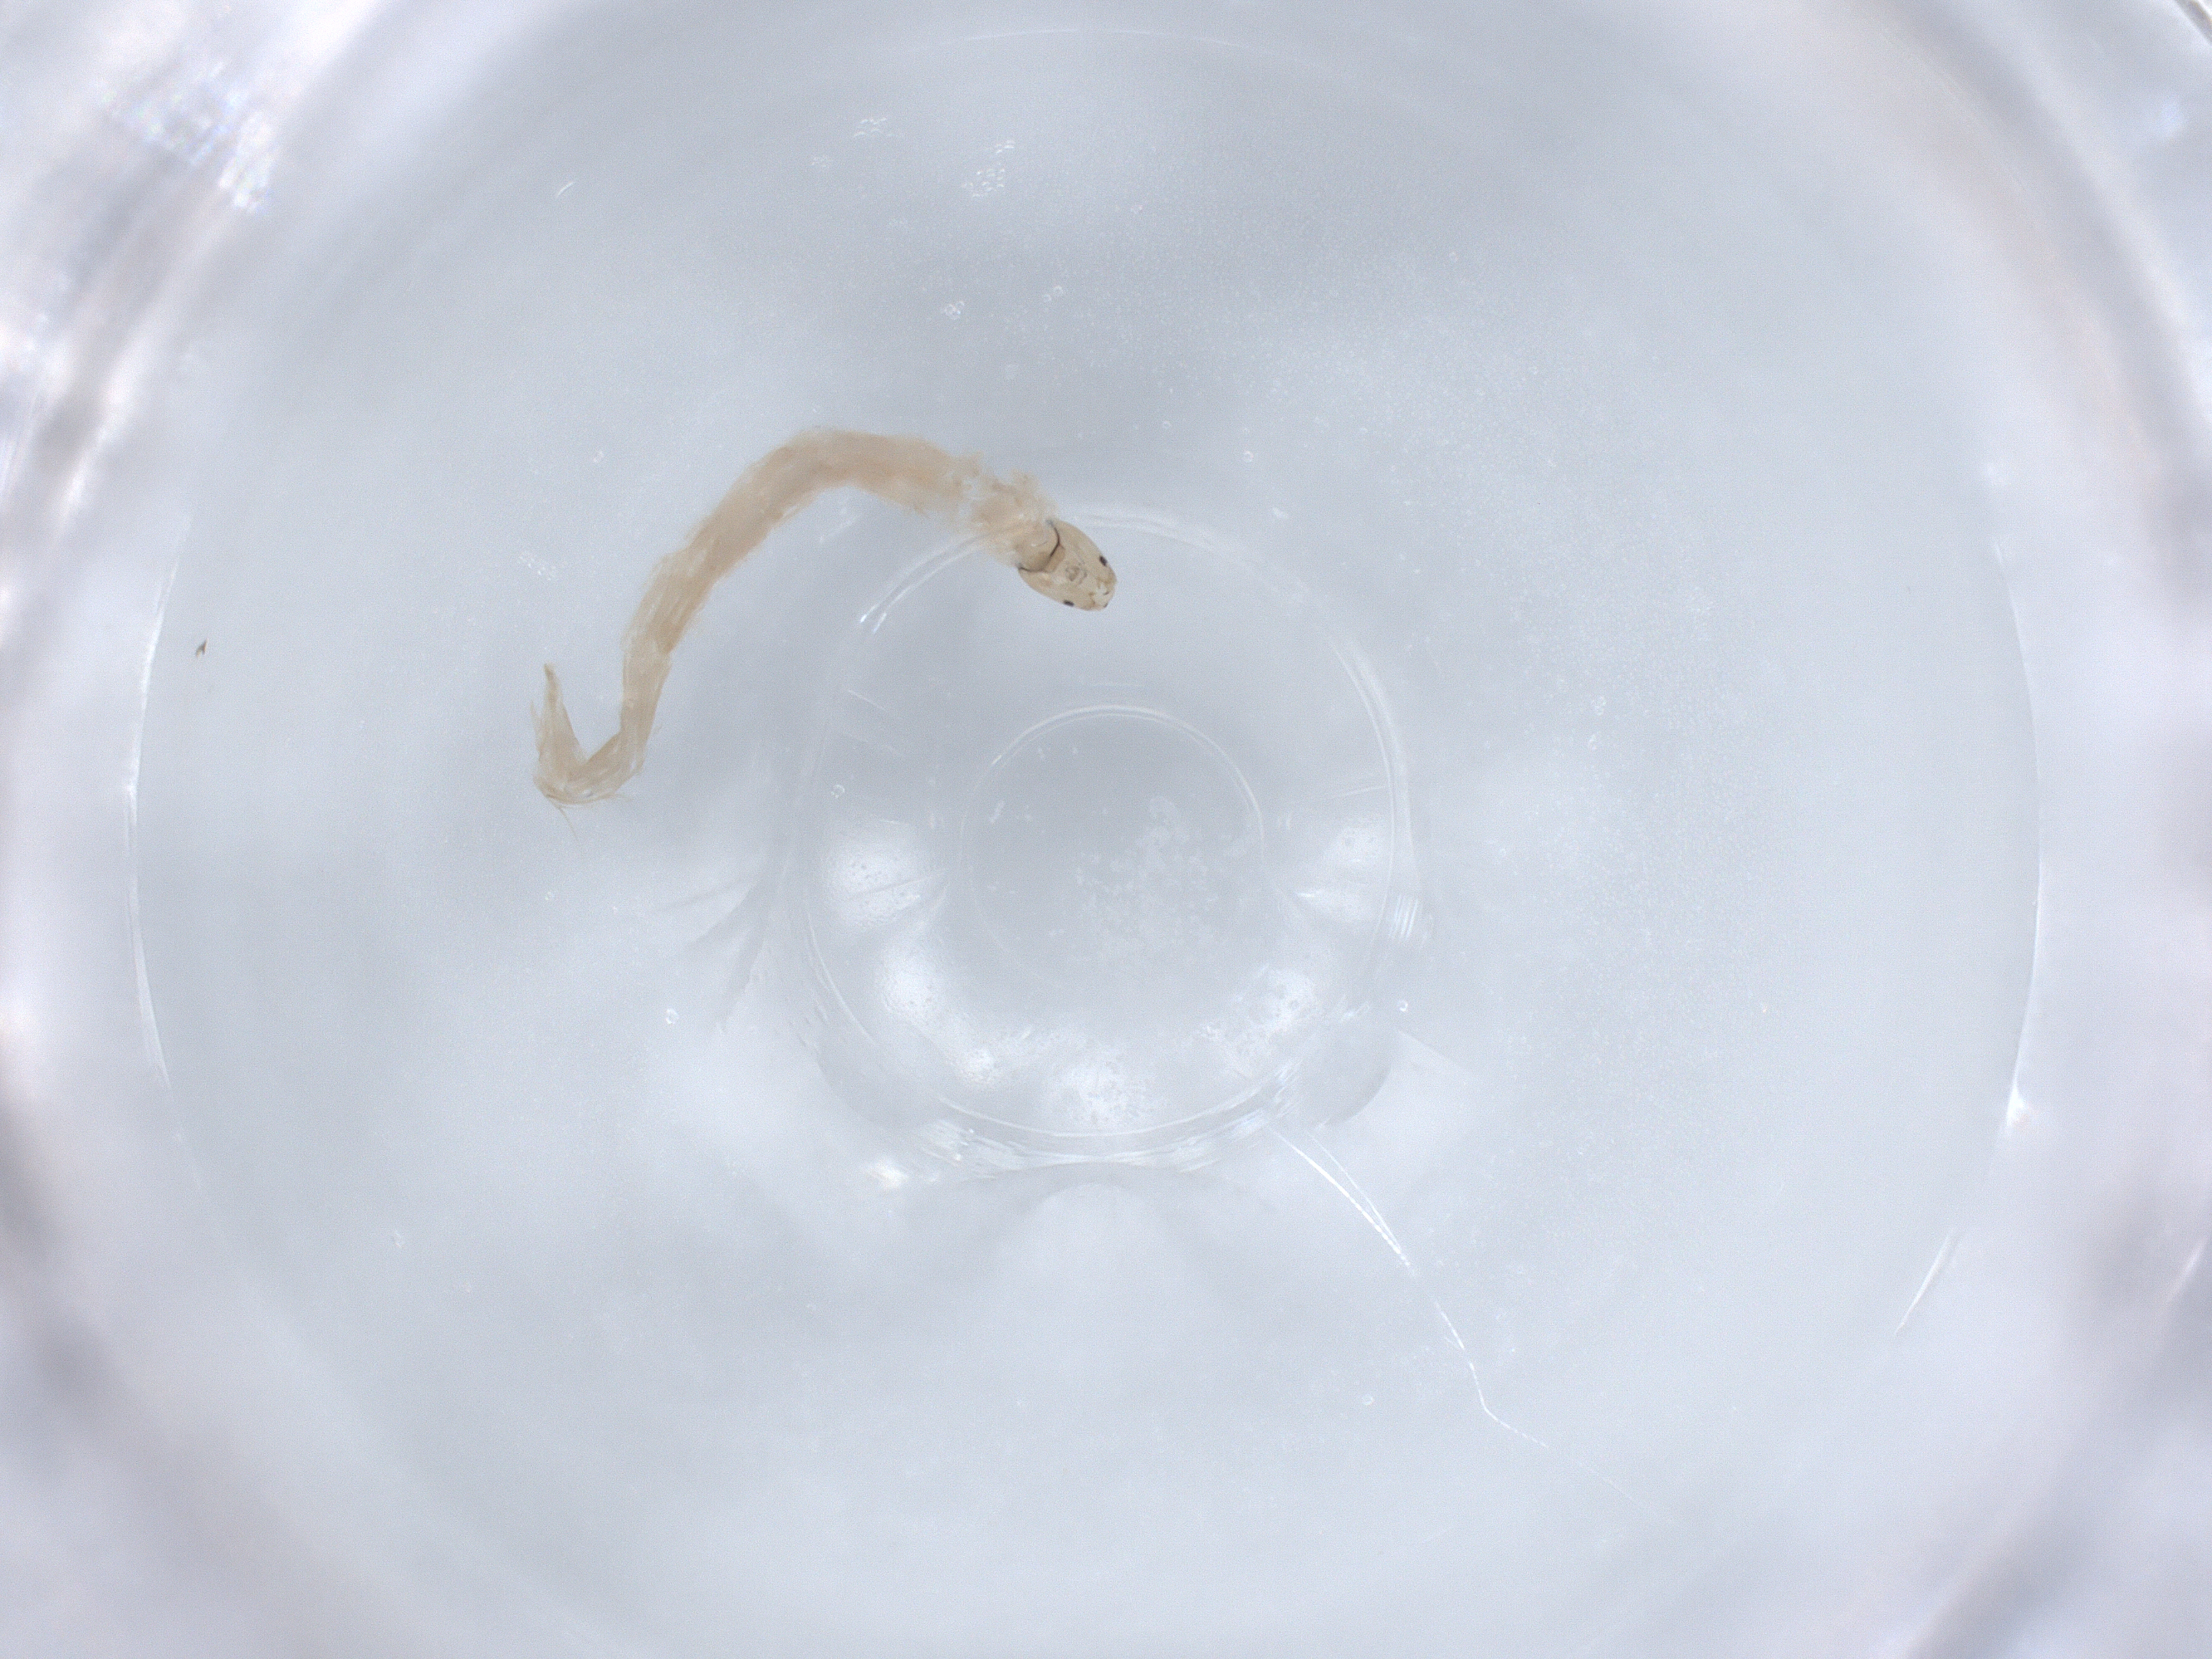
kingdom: Animalia
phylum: Arthropoda
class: Insecta
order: Diptera
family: Chironomidae
